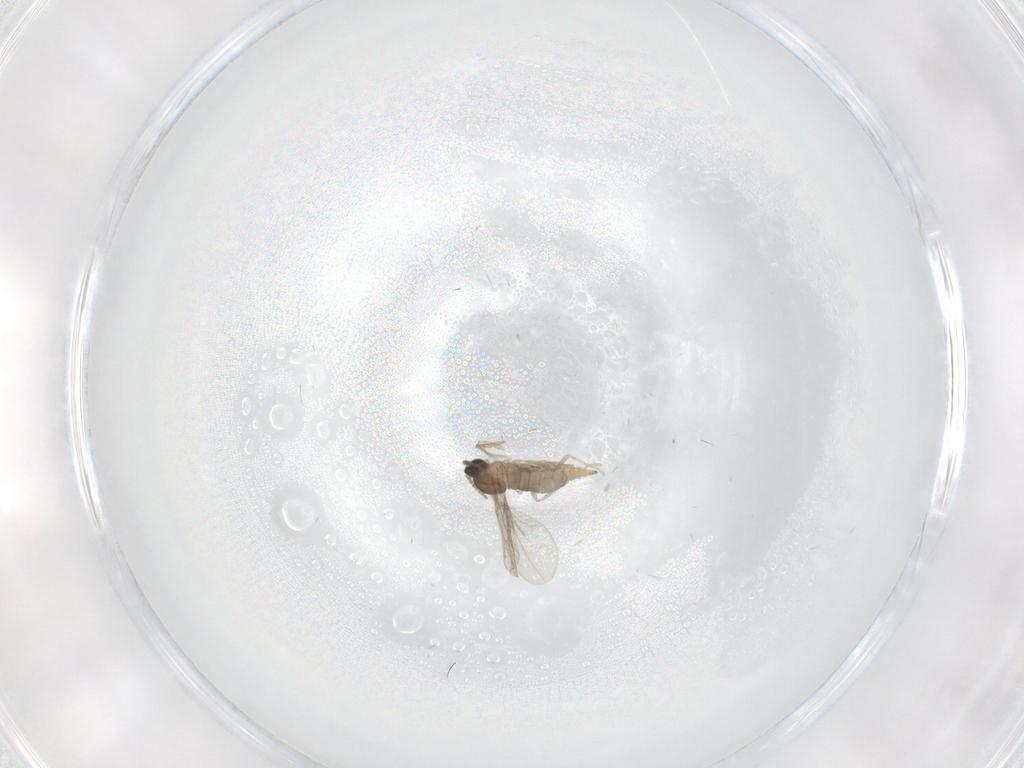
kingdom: Animalia
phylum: Arthropoda
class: Insecta
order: Diptera
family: Cecidomyiidae
